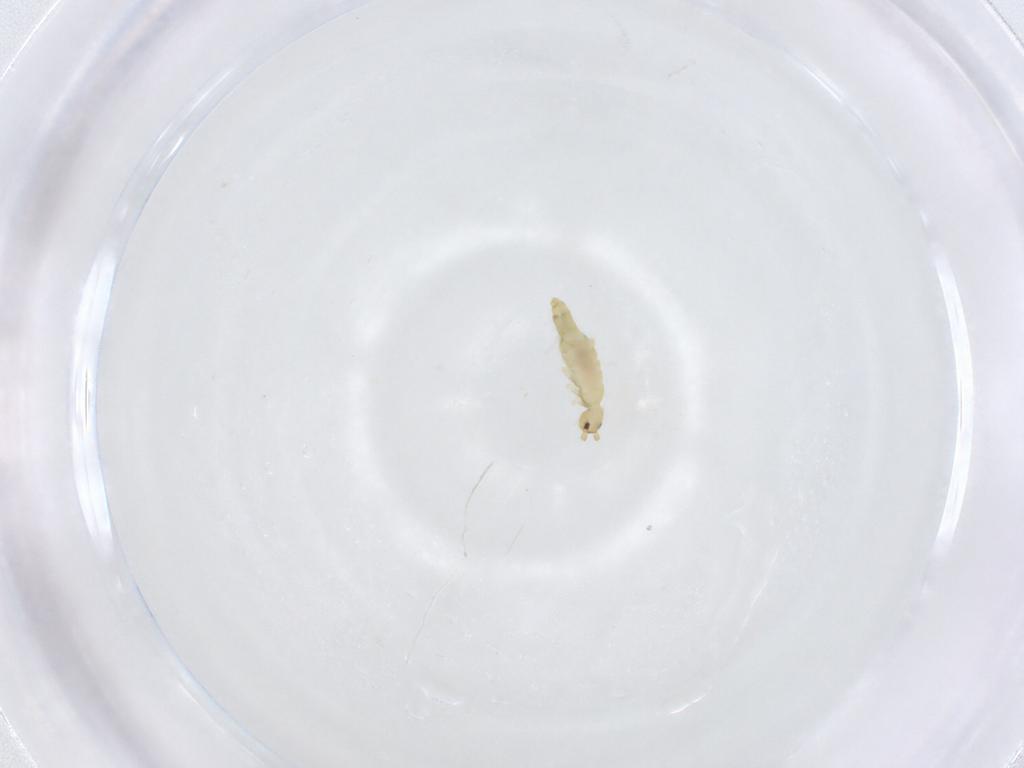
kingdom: Animalia
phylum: Arthropoda
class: Collembola
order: Entomobryomorpha
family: Entomobryidae
